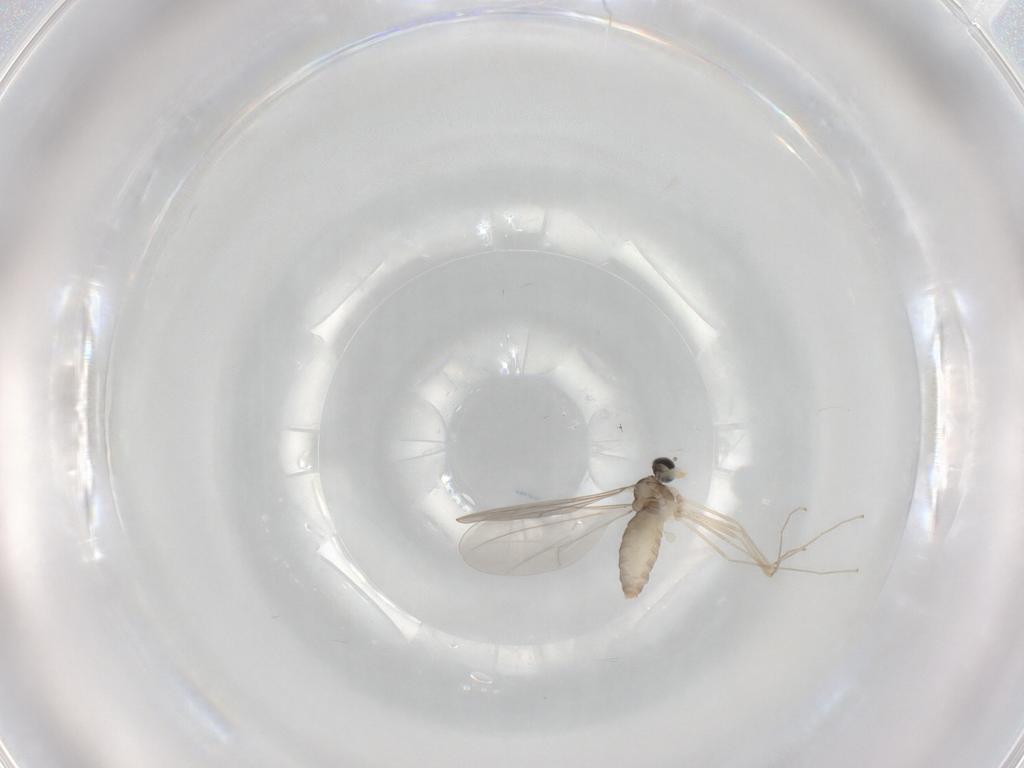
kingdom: Animalia
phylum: Arthropoda
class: Insecta
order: Diptera
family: Cecidomyiidae
